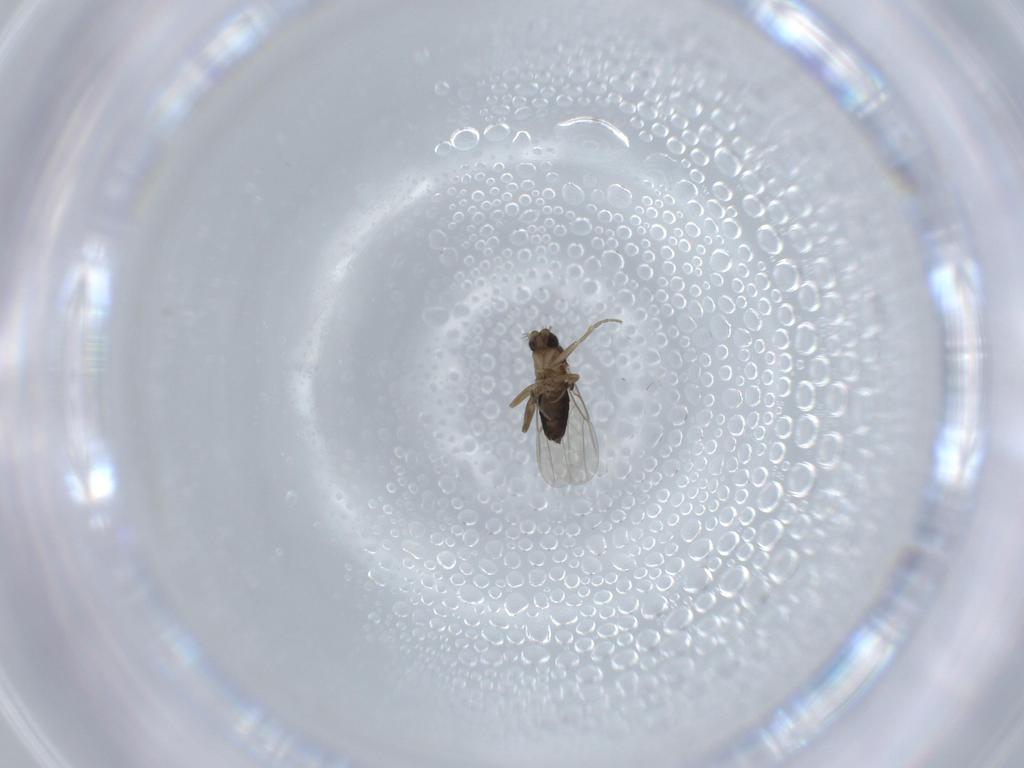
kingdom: Animalia
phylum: Arthropoda
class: Insecta
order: Diptera
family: Phoridae
